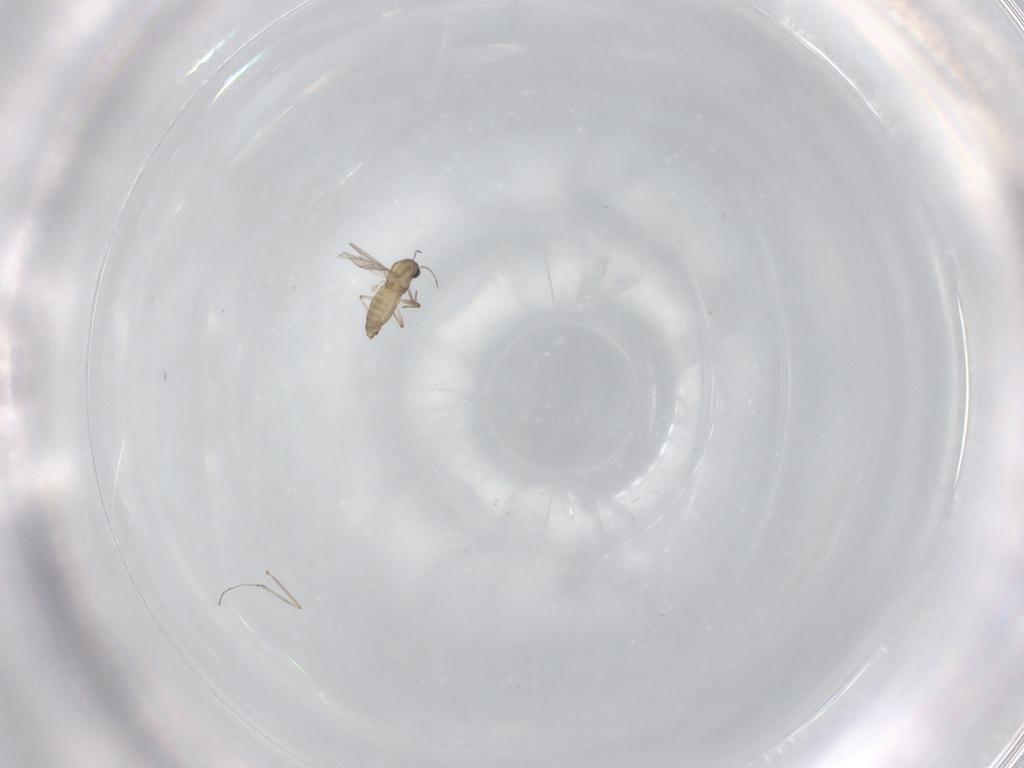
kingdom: Animalia
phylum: Arthropoda
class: Insecta
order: Diptera
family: Cecidomyiidae
